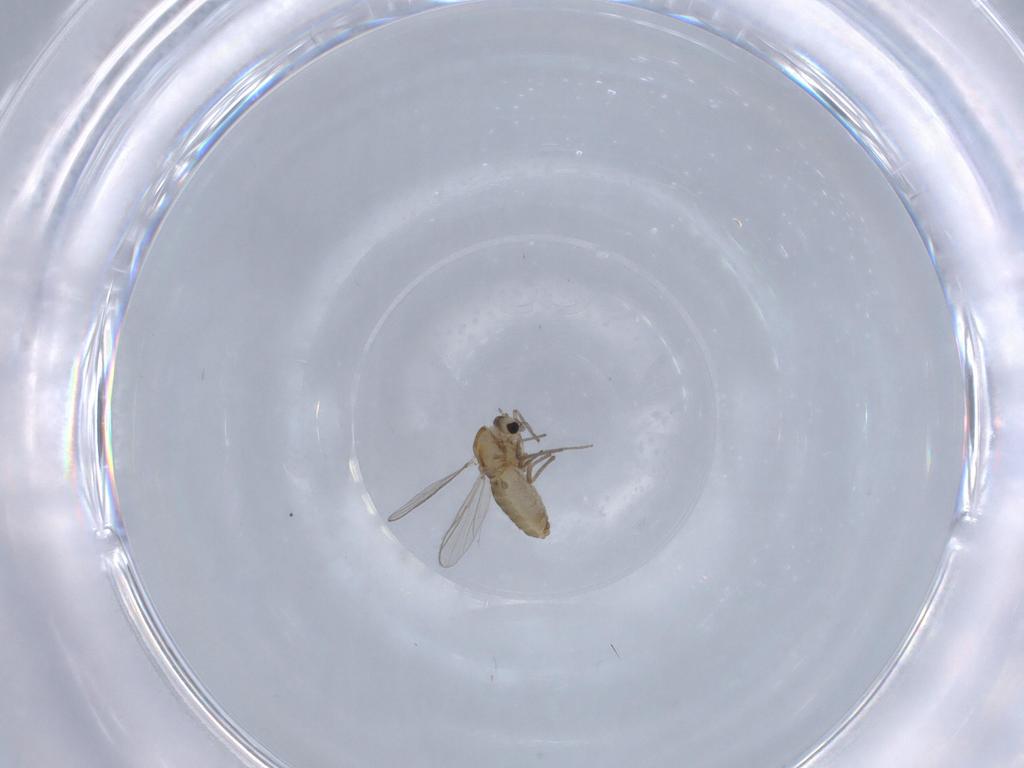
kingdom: Animalia
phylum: Arthropoda
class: Insecta
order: Diptera
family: Chironomidae
